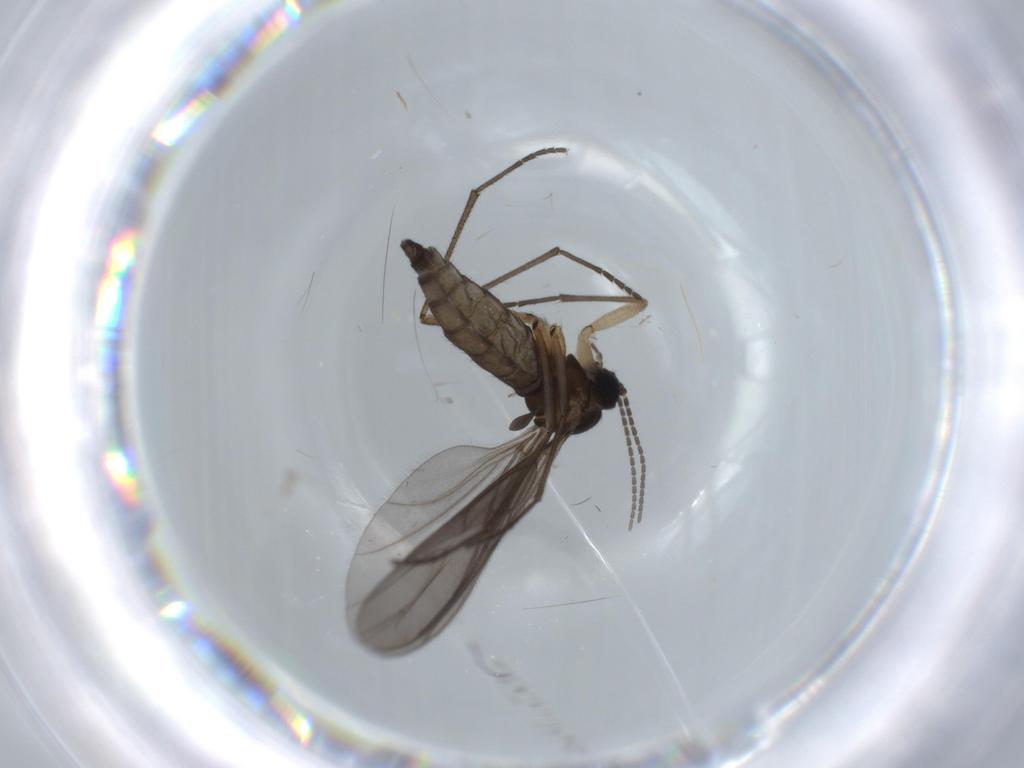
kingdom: Animalia
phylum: Arthropoda
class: Insecta
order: Diptera
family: Sciaridae
